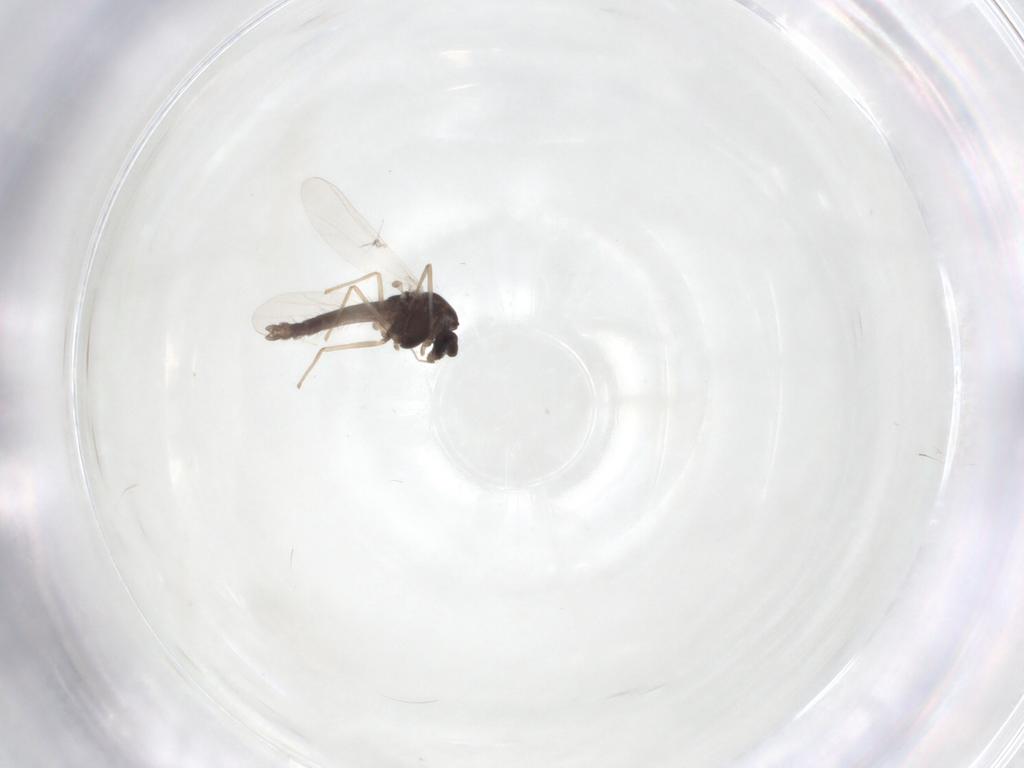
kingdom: Animalia
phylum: Arthropoda
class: Insecta
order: Diptera
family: Chironomidae
